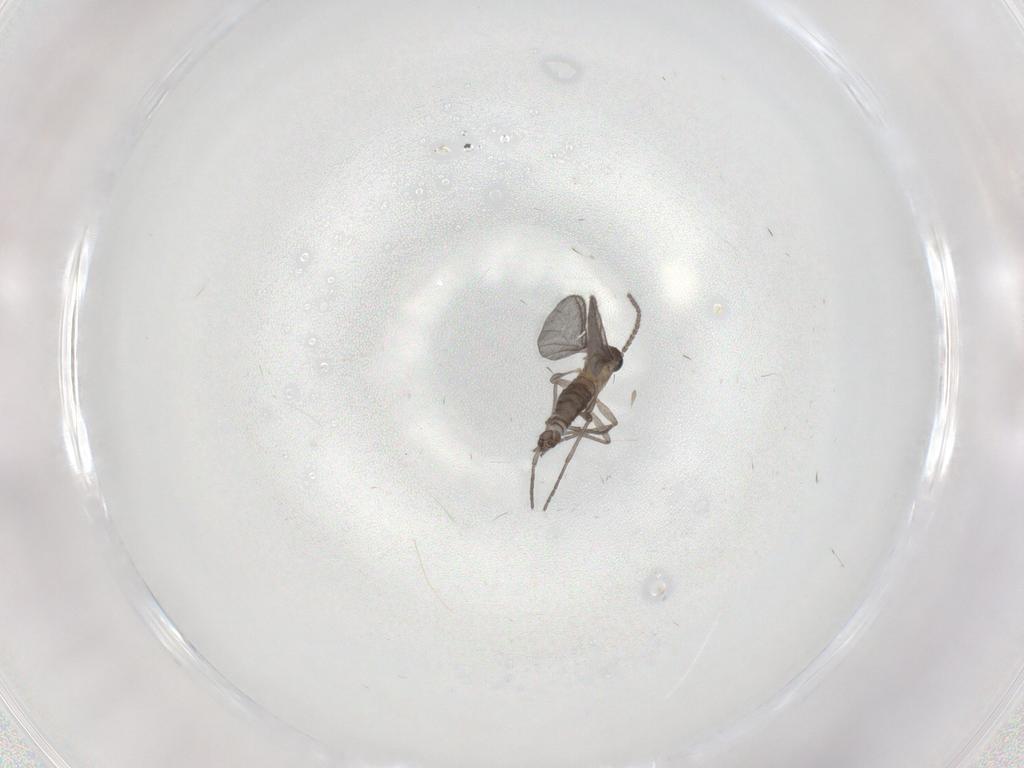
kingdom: Animalia
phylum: Arthropoda
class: Insecta
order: Diptera
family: Sciaridae
